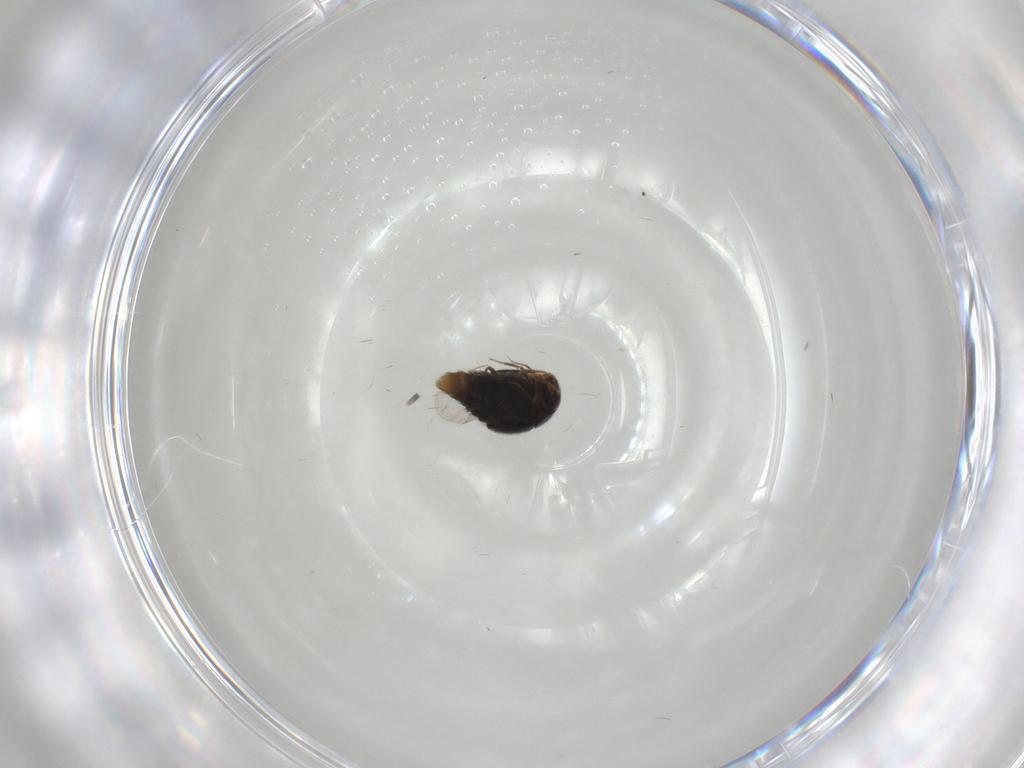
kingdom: Animalia
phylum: Arthropoda
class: Insecta
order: Coleoptera
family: Staphylinidae
